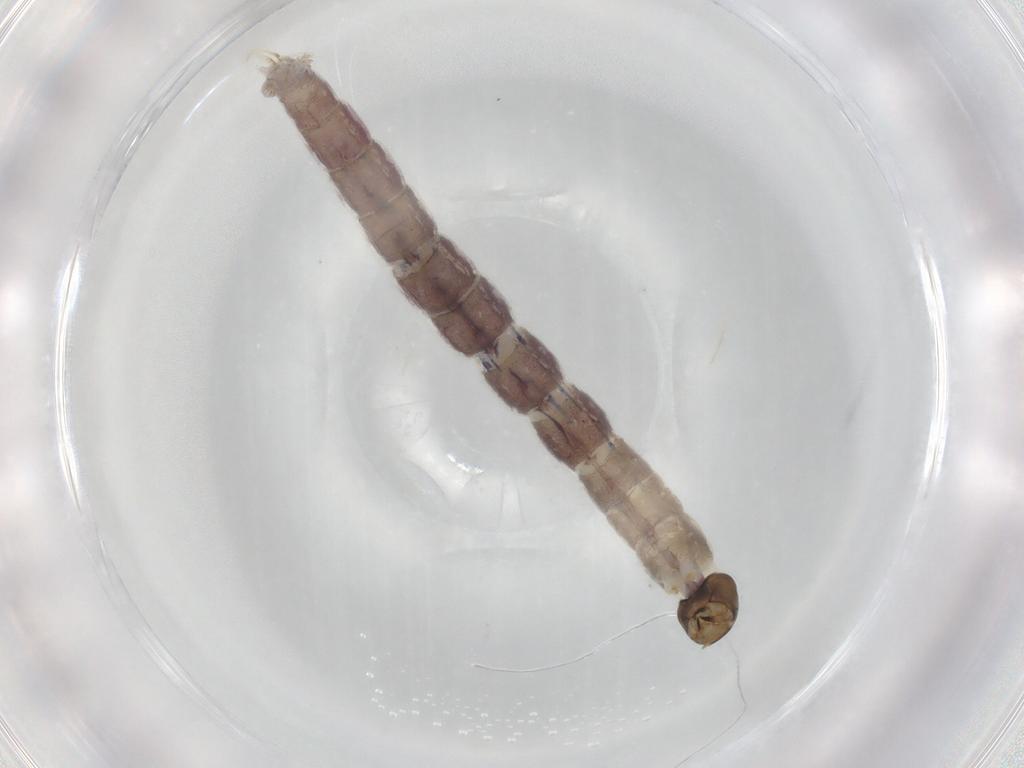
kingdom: Animalia
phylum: Arthropoda
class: Insecta
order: Diptera
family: Chironomidae
